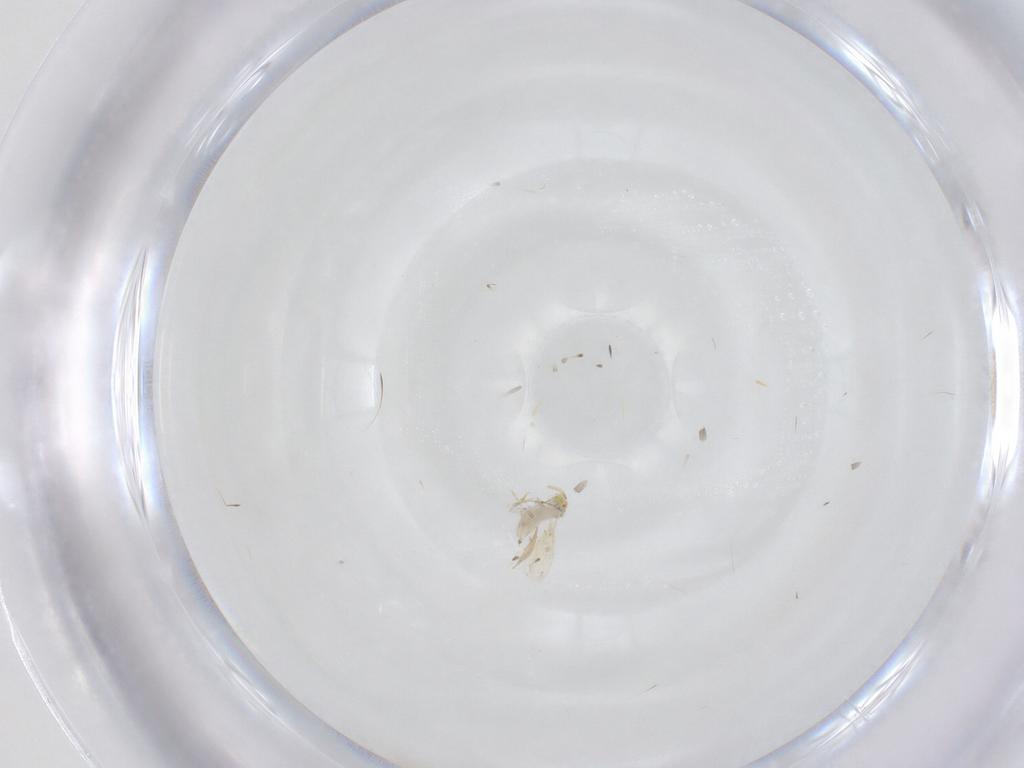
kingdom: Animalia
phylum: Arthropoda
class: Insecta
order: Hymenoptera
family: Aphelinidae
